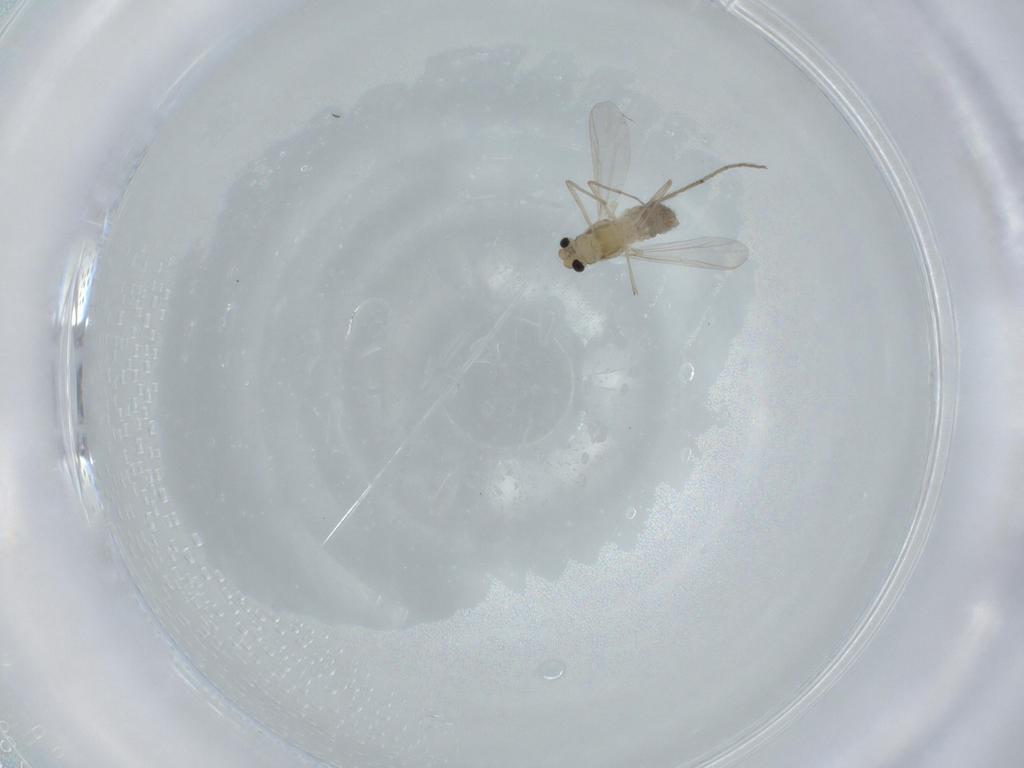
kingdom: Animalia
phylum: Arthropoda
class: Insecta
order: Diptera
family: Chironomidae
